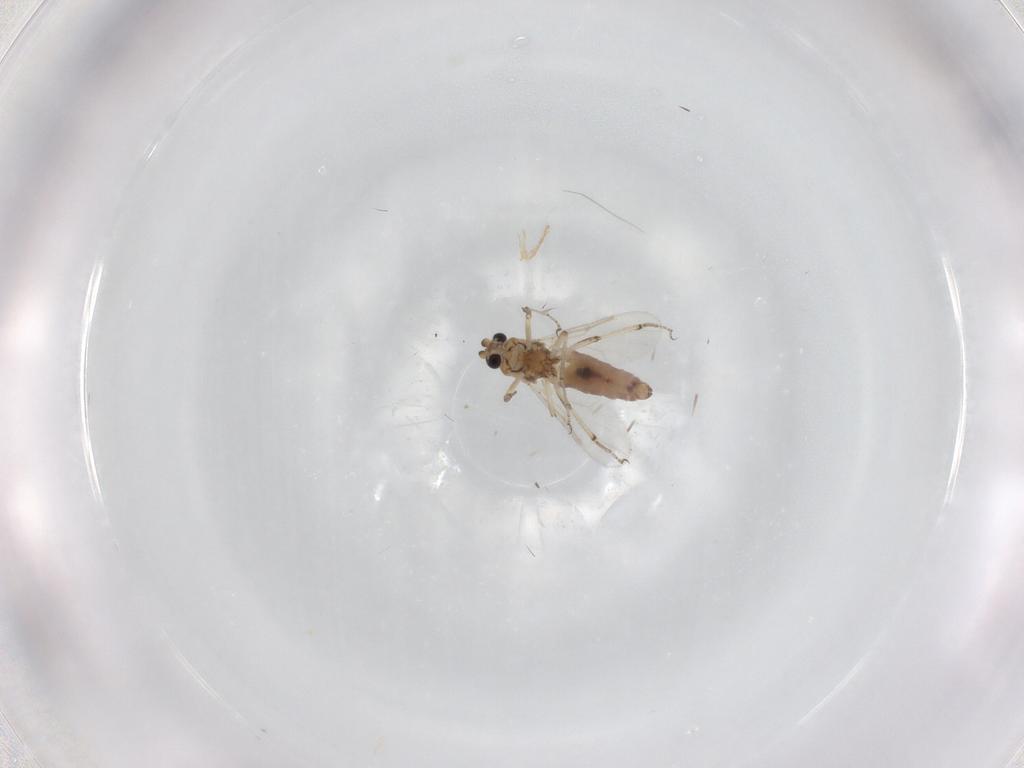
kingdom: Animalia
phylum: Arthropoda
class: Insecta
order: Diptera
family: Ceratopogonidae
